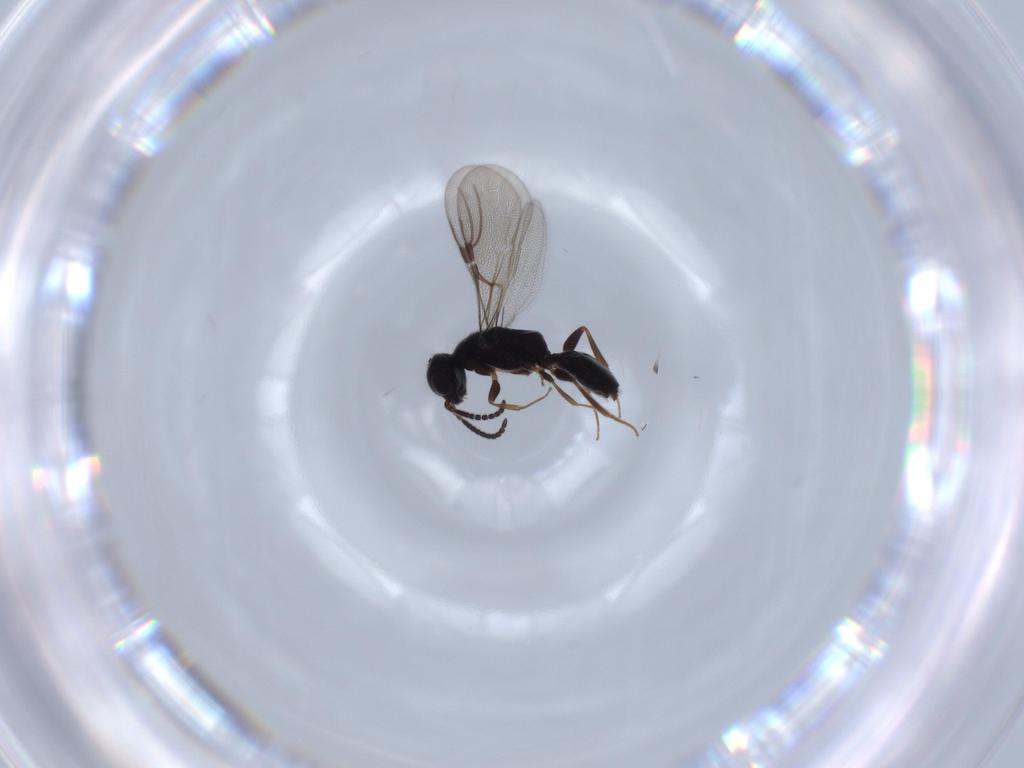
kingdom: Animalia
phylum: Arthropoda
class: Insecta
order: Hymenoptera
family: Bethylidae
